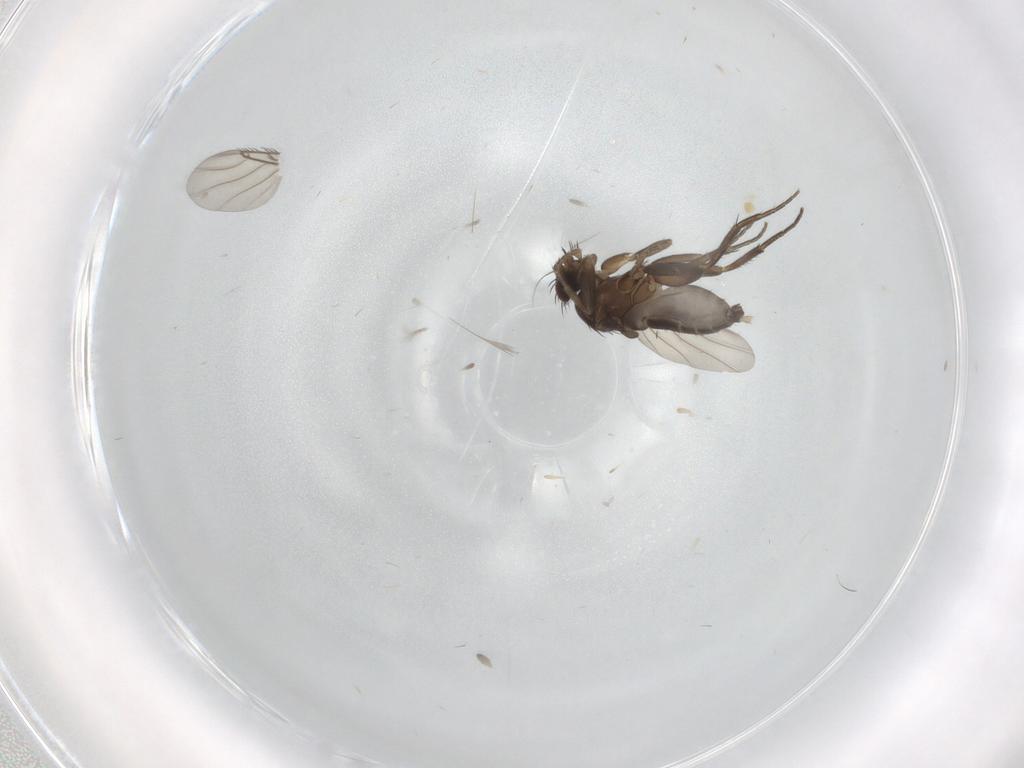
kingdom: Animalia
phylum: Arthropoda
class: Insecta
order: Diptera
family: Phoridae
